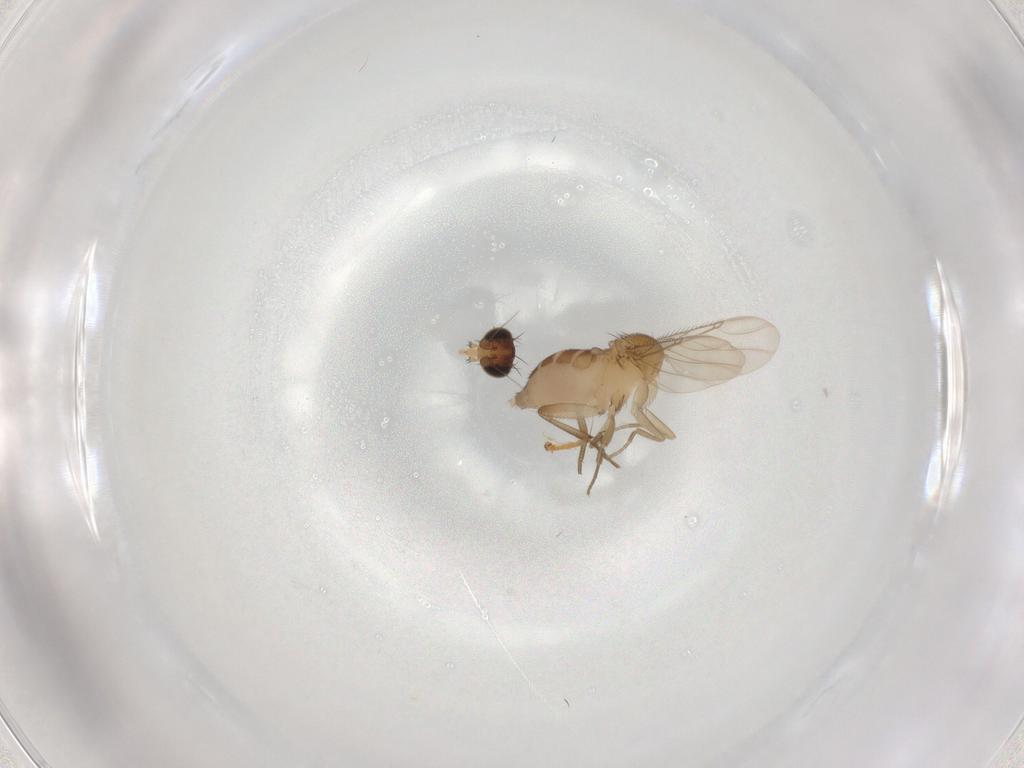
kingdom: Animalia
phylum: Arthropoda
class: Insecta
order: Diptera
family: Phoridae
